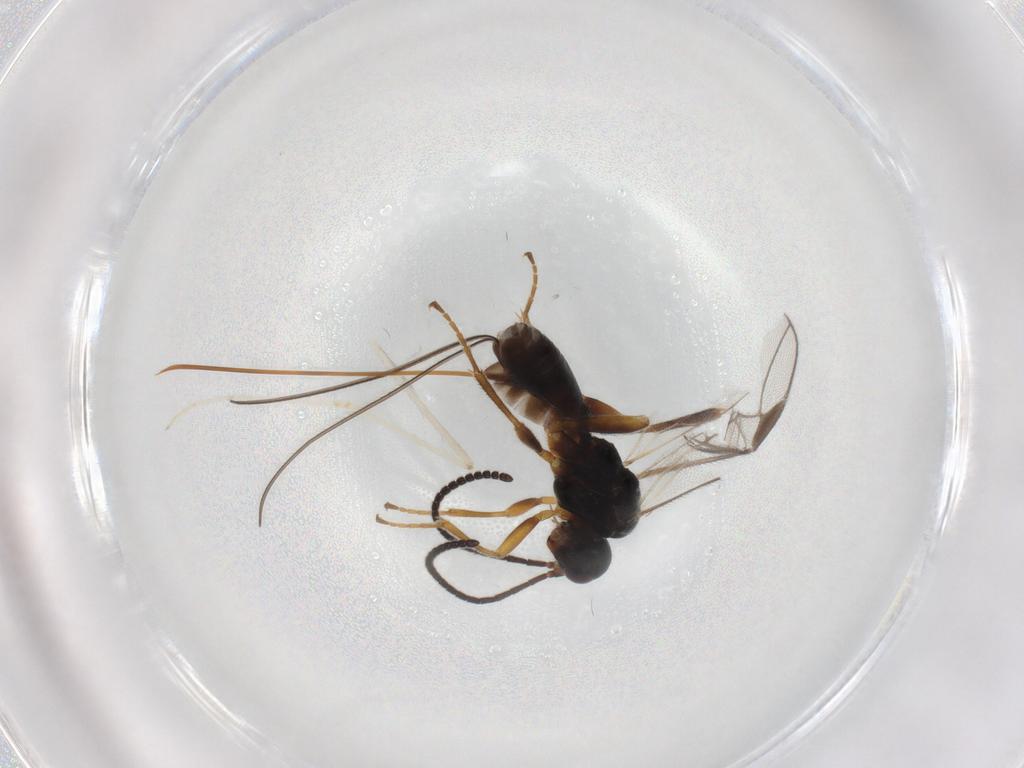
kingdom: Animalia
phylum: Arthropoda
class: Insecta
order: Hymenoptera
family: Braconidae
